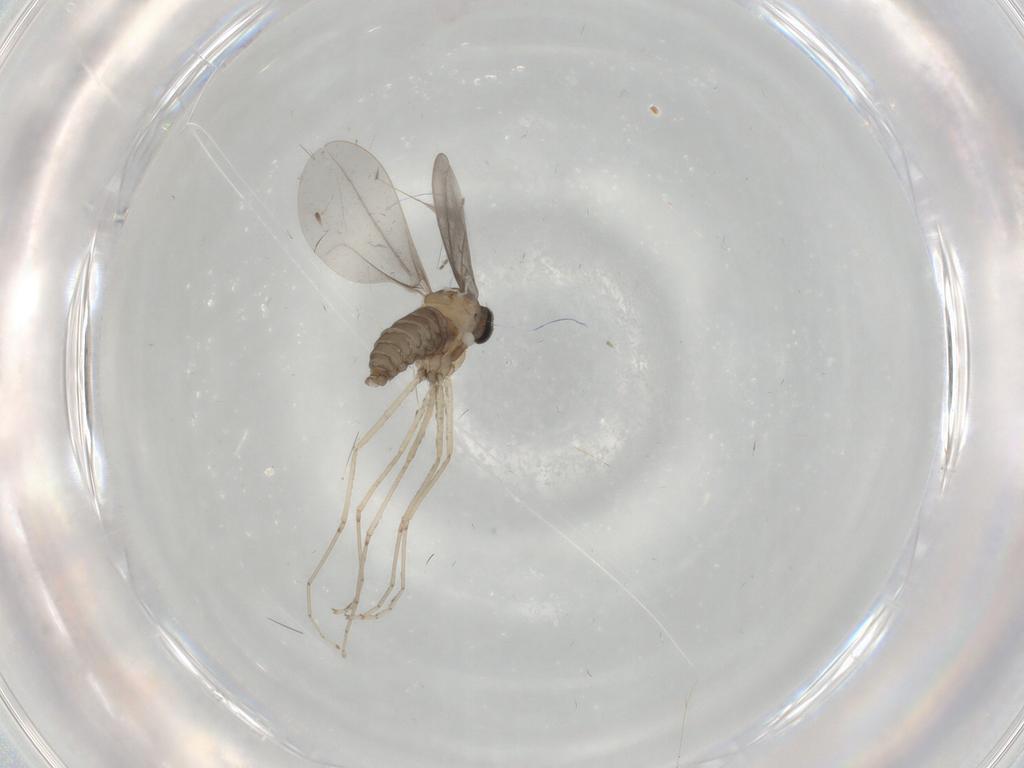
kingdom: Animalia
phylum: Arthropoda
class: Insecta
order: Diptera
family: Cecidomyiidae
